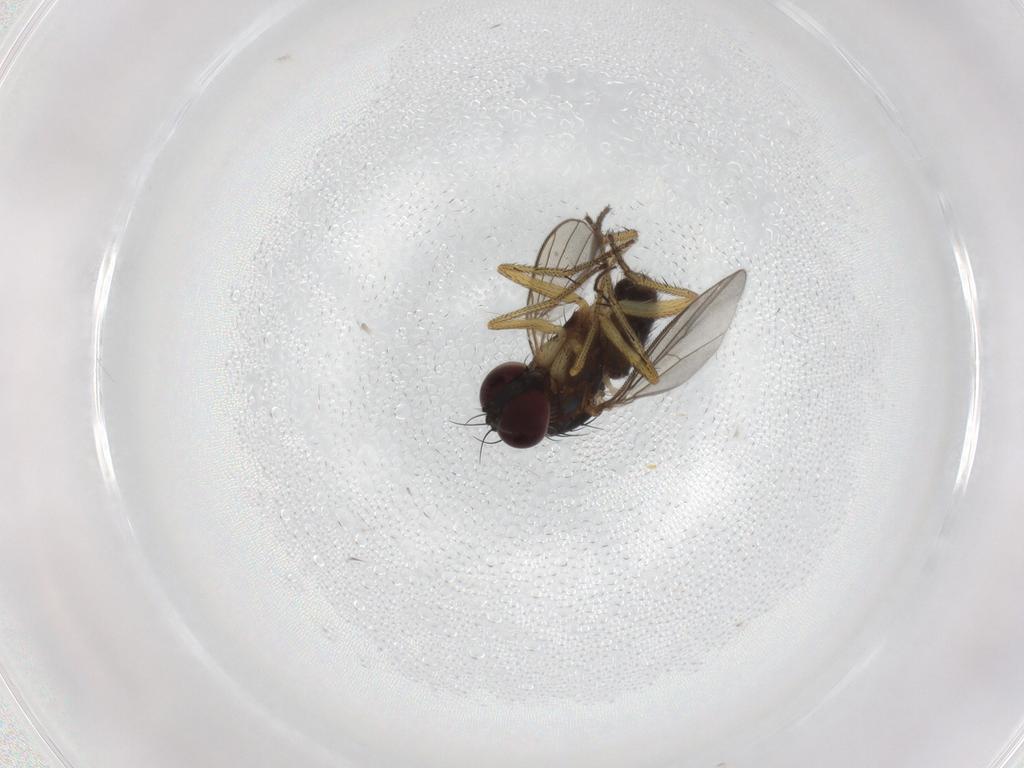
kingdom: Animalia
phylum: Arthropoda
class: Insecta
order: Diptera
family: Dolichopodidae
